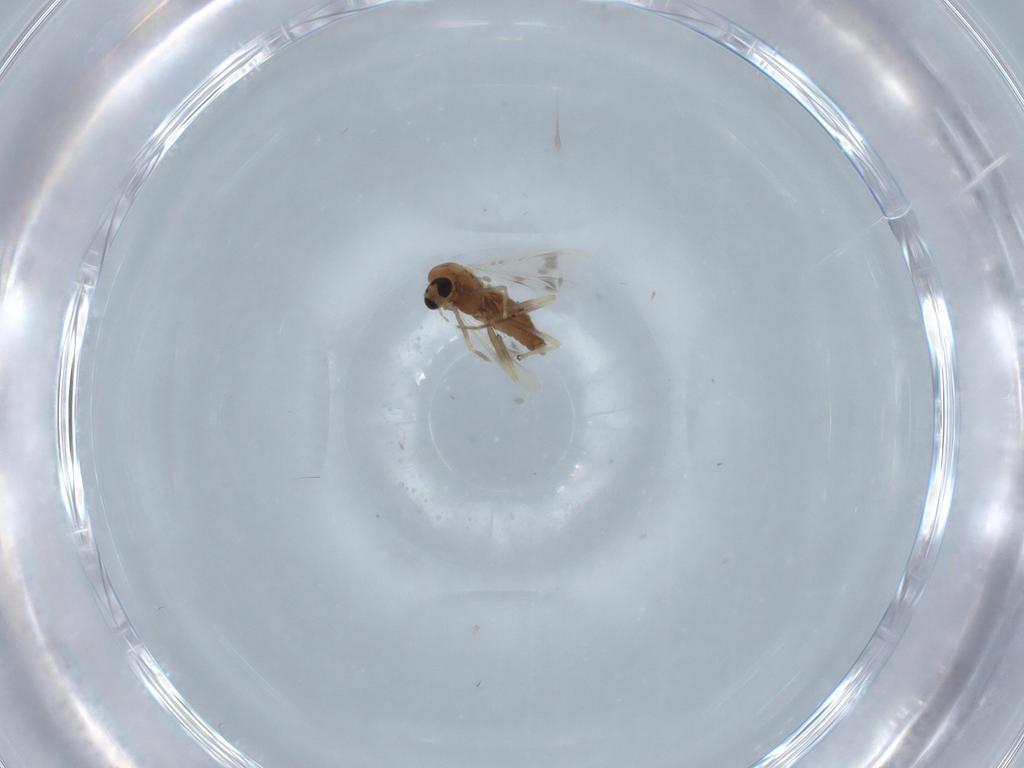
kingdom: Animalia
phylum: Arthropoda
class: Insecta
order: Diptera
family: Chironomidae
